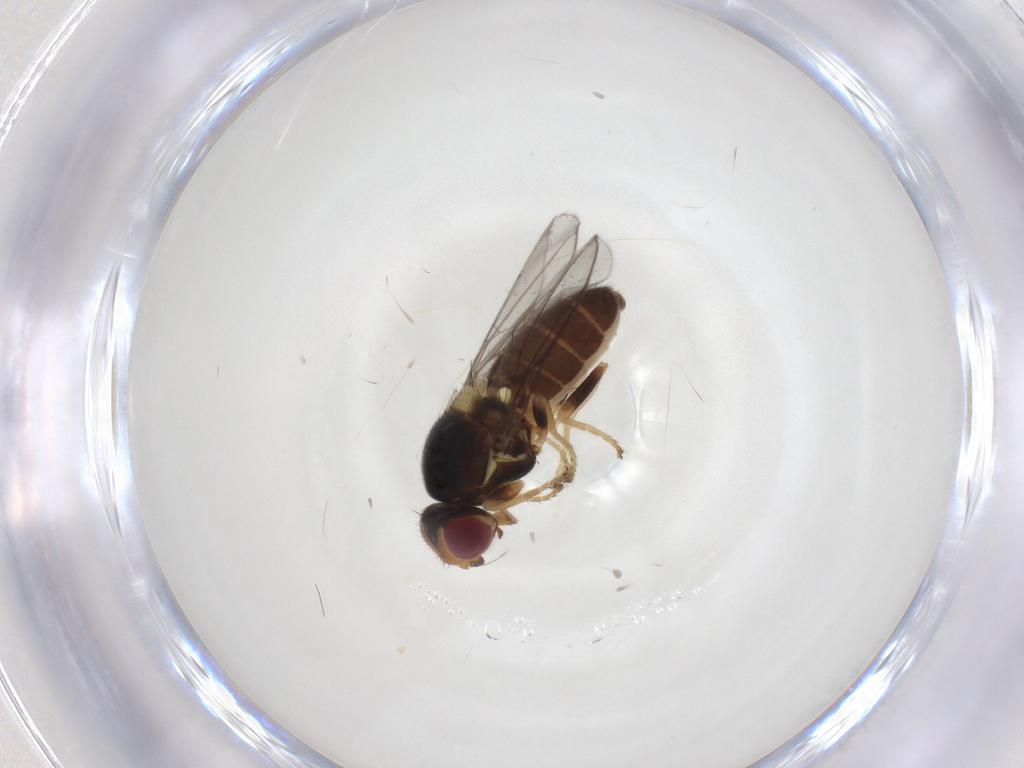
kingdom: Animalia
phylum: Arthropoda
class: Insecta
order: Diptera
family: Chloropidae
